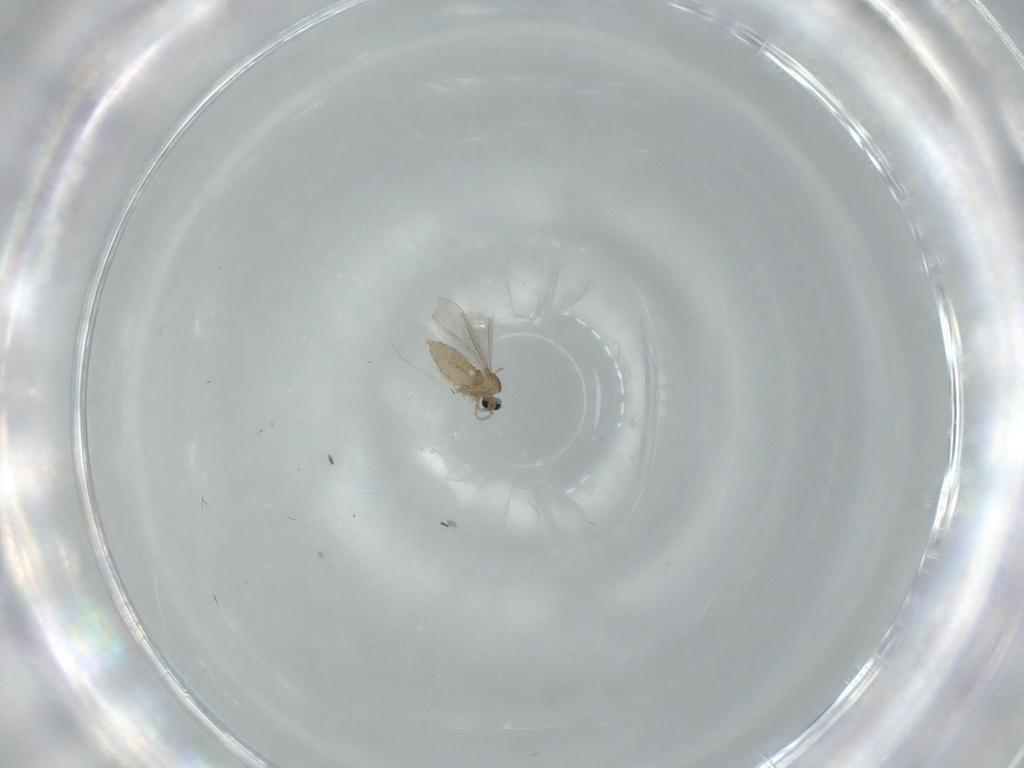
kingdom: Animalia
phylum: Arthropoda
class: Insecta
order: Diptera
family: Cecidomyiidae
